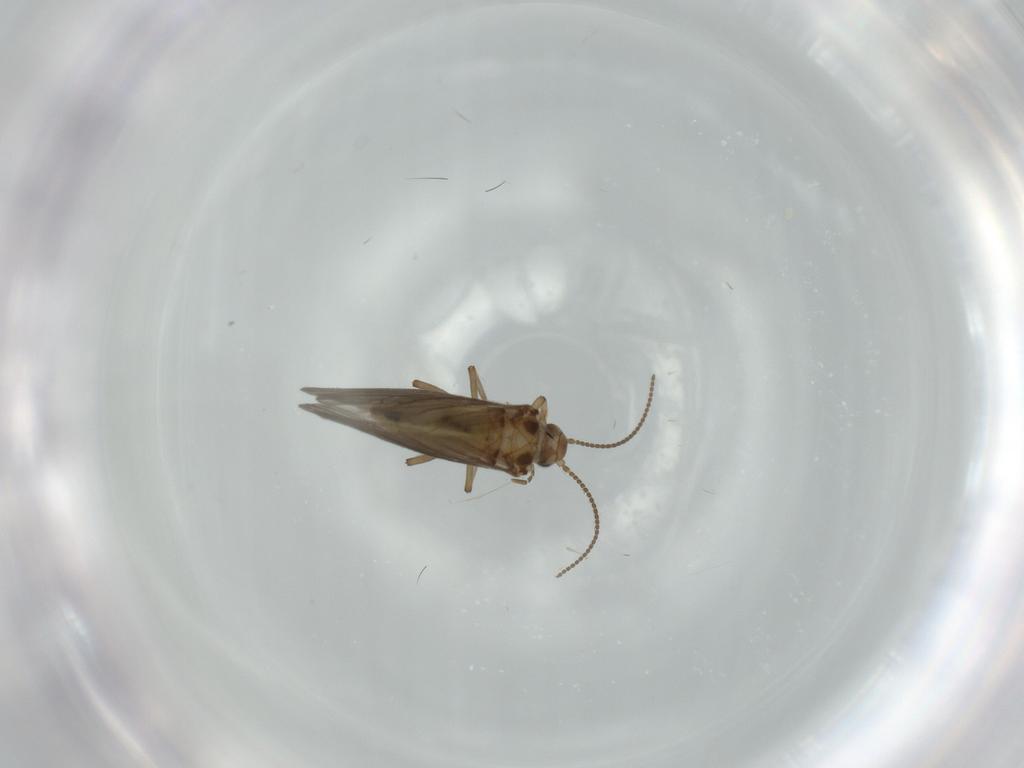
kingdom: Animalia
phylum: Arthropoda
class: Insecta
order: Neuroptera
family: Coniopterygidae
